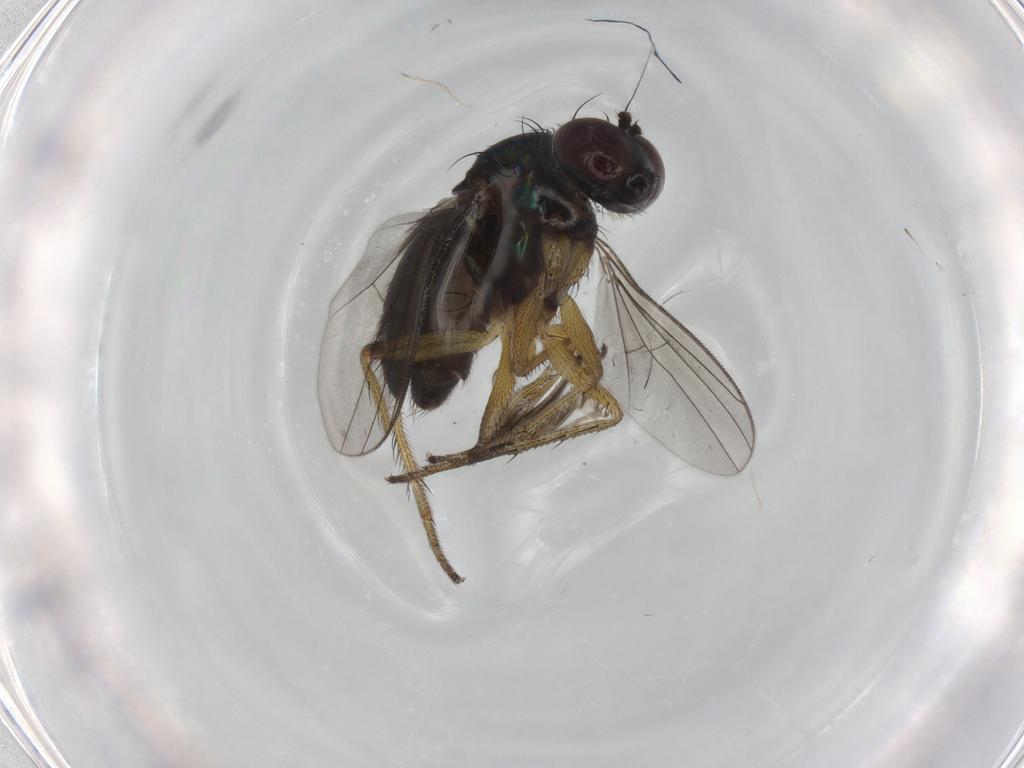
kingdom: Animalia
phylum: Arthropoda
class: Insecta
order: Diptera
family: Dolichopodidae
